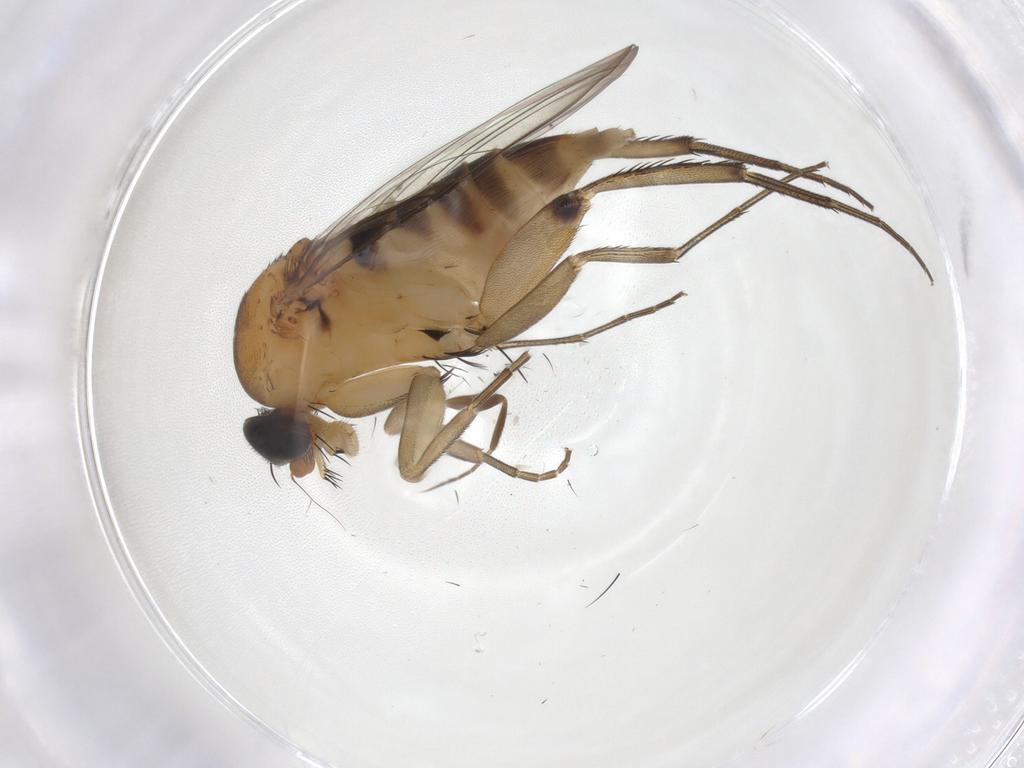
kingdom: Animalia
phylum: Arthropoda
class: Insecta
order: Diptera
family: Phoridae
